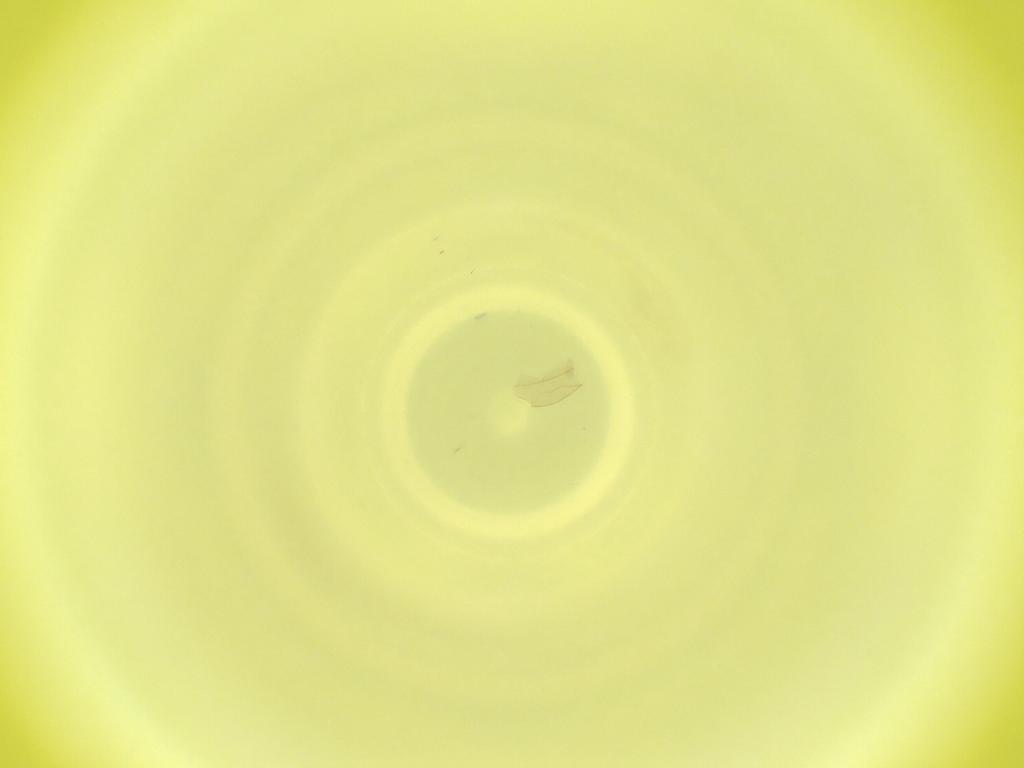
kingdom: Animalia
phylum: Arthropoda
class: Insecta
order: Diptera
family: Cecidomyiidae
